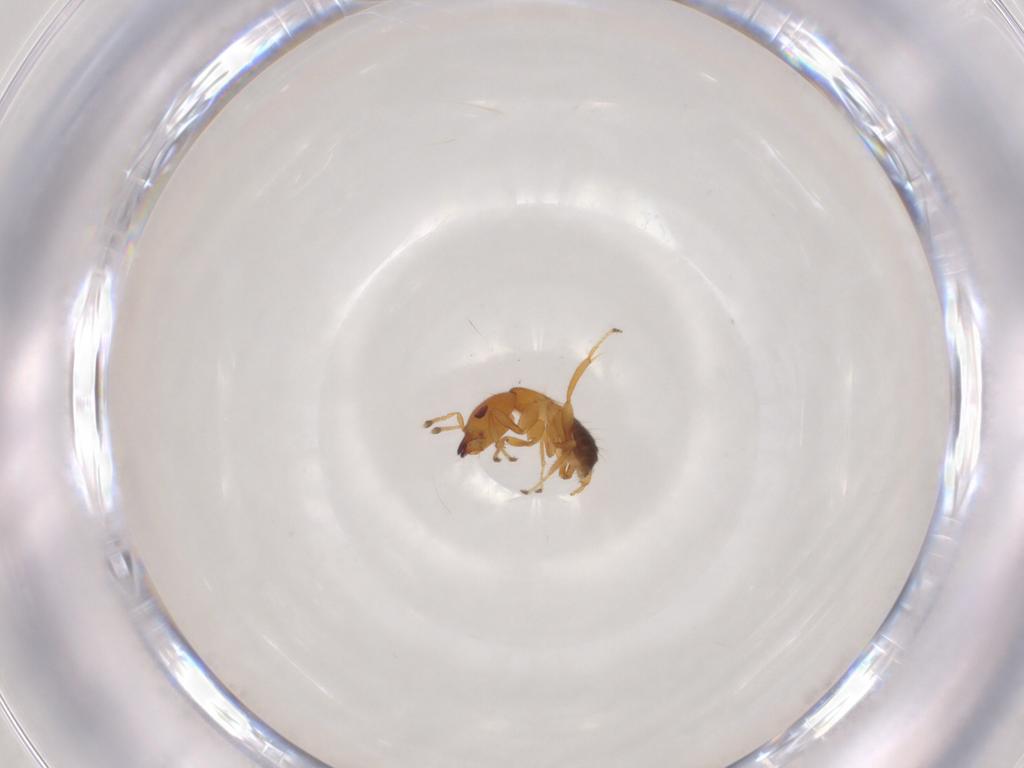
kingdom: Animalia
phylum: Arthropoda
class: Insecta
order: Hymenoptera
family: Pteromalidae
